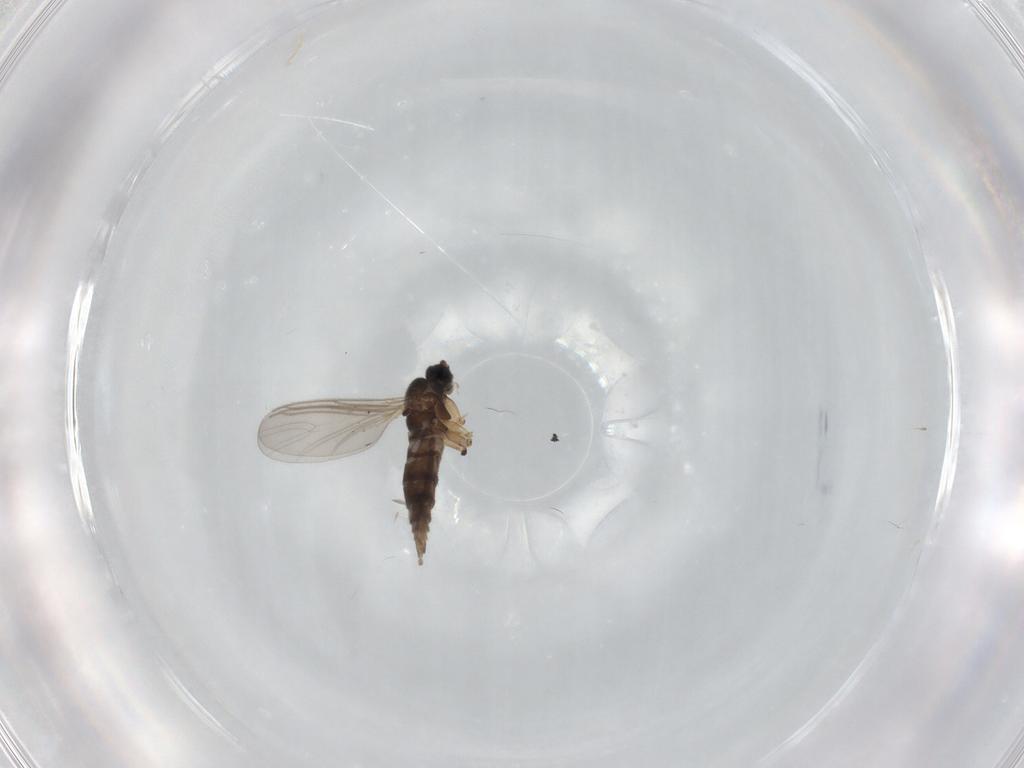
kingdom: Animalia
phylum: Arthropoda
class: Insecta
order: Diptera
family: Sciaridae
